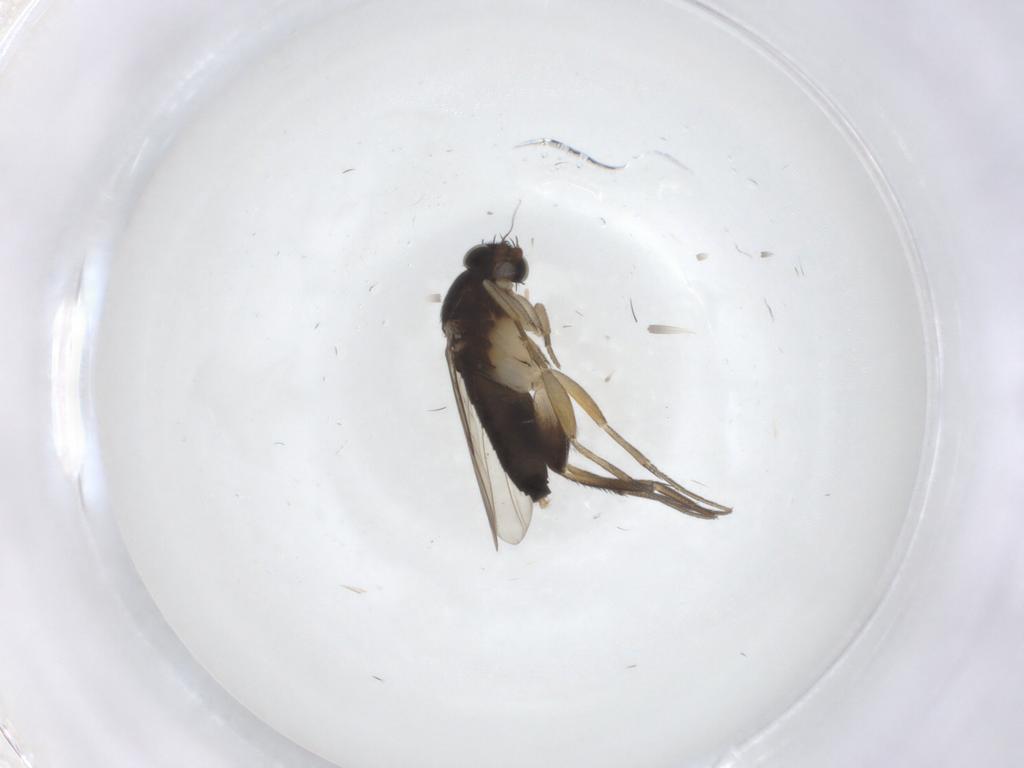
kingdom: Animalia
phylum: Arthropoda
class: Insecta
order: Diptera
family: Phoridae
